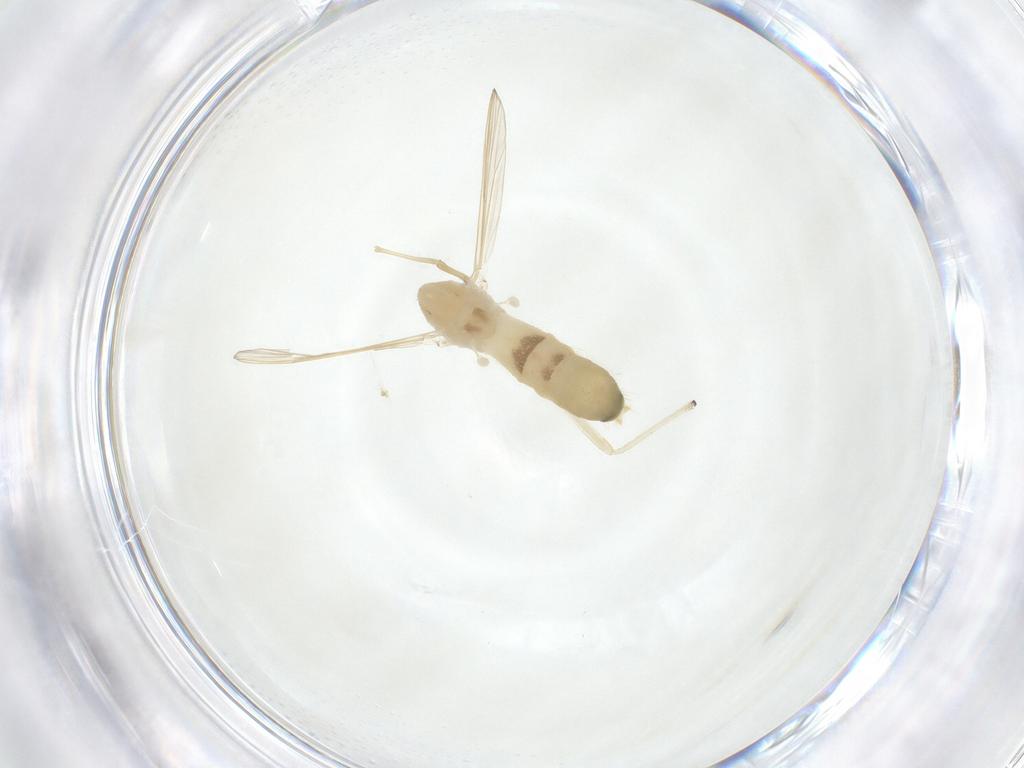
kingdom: Animalia
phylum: Arthropoda
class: Insecta
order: Diptera
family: Chironomidae
